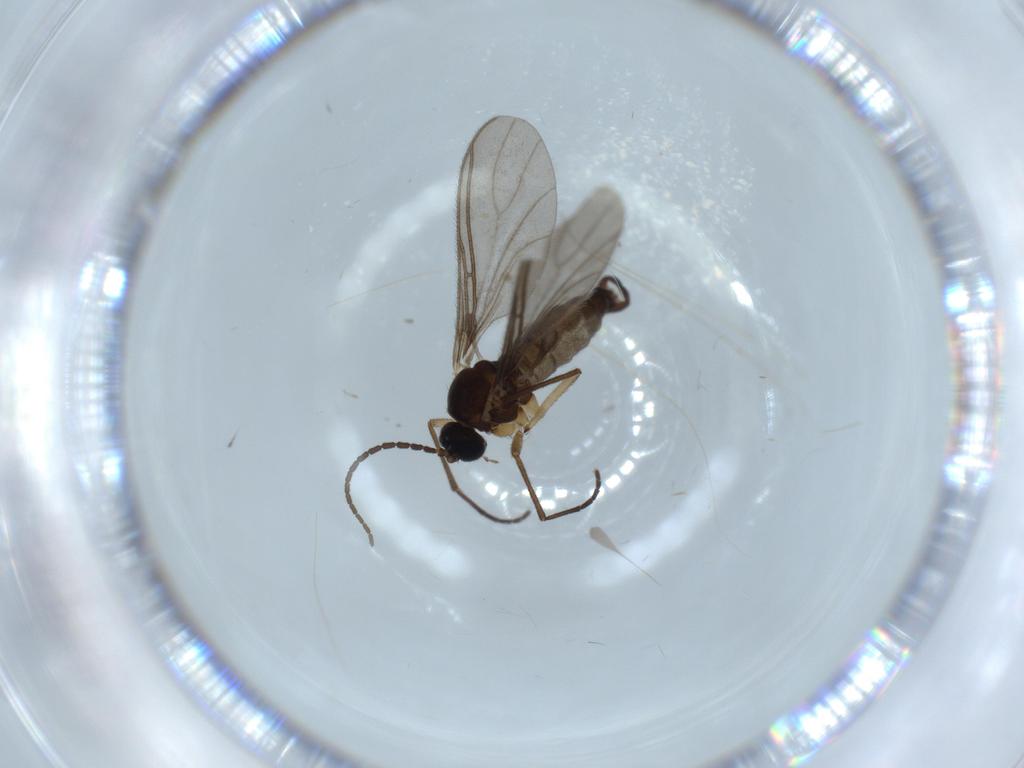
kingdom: Animalia
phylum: Arthropoda
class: Insecta
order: Diptera
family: Sciaridae
